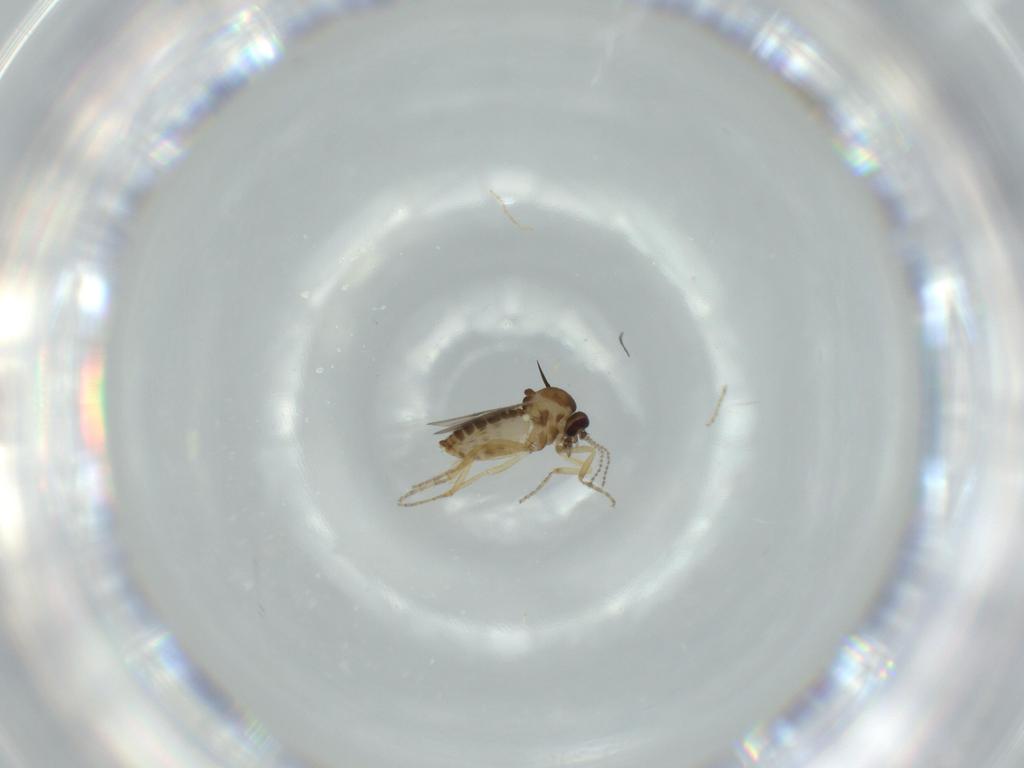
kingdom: Animalia
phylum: Arthropoda
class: Insecta
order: Diptera
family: Ceratopogonidae
